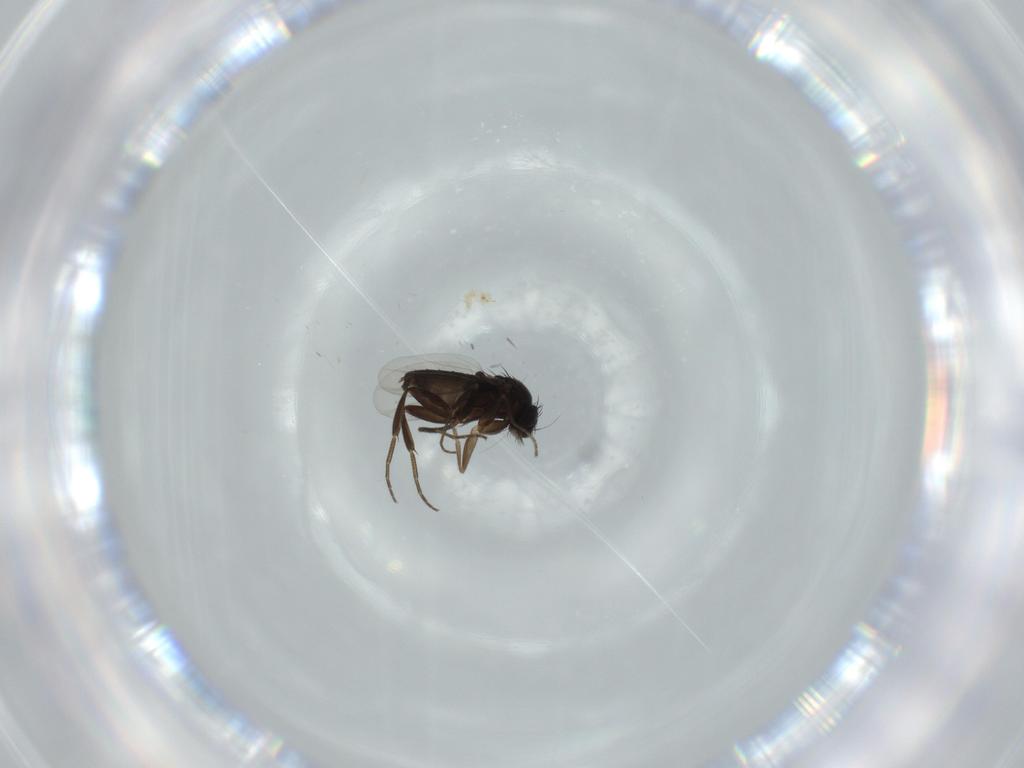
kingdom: Animalia
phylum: Arthropoda
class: Insecta
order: Diptera
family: Phoridae
